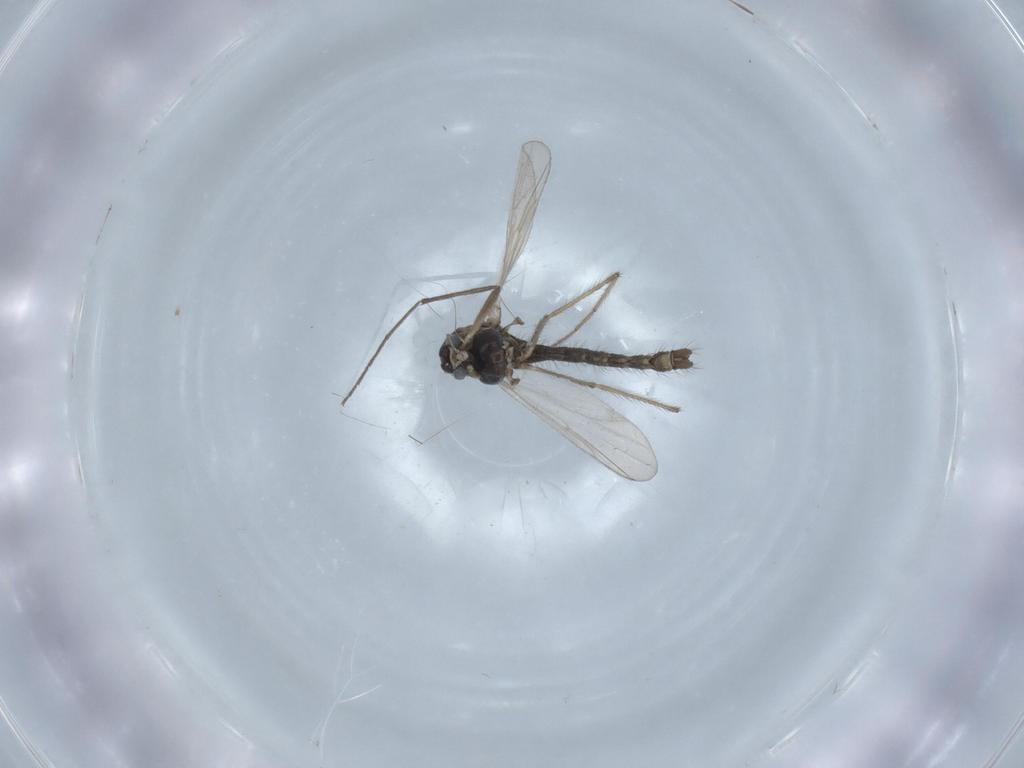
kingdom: Animalia
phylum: Arthropoda
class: Insecta
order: Diptera
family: Chironomidae
